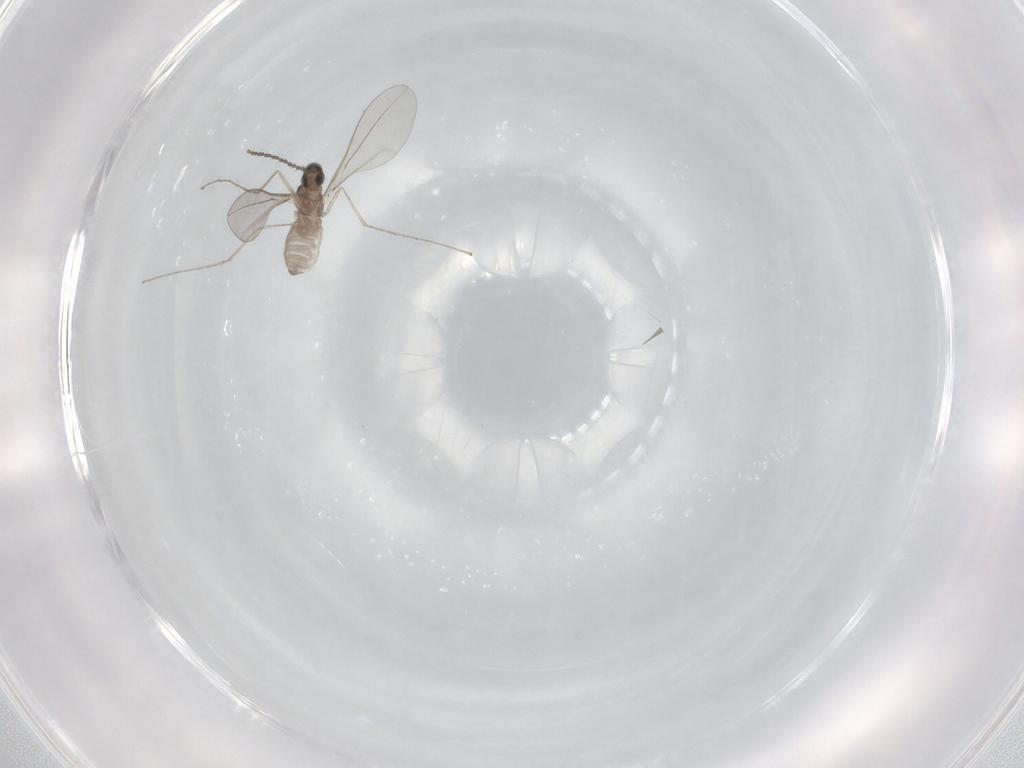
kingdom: Animalia
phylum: Arthropoda
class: Insecta
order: Diptera
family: Cecidomyiidae
